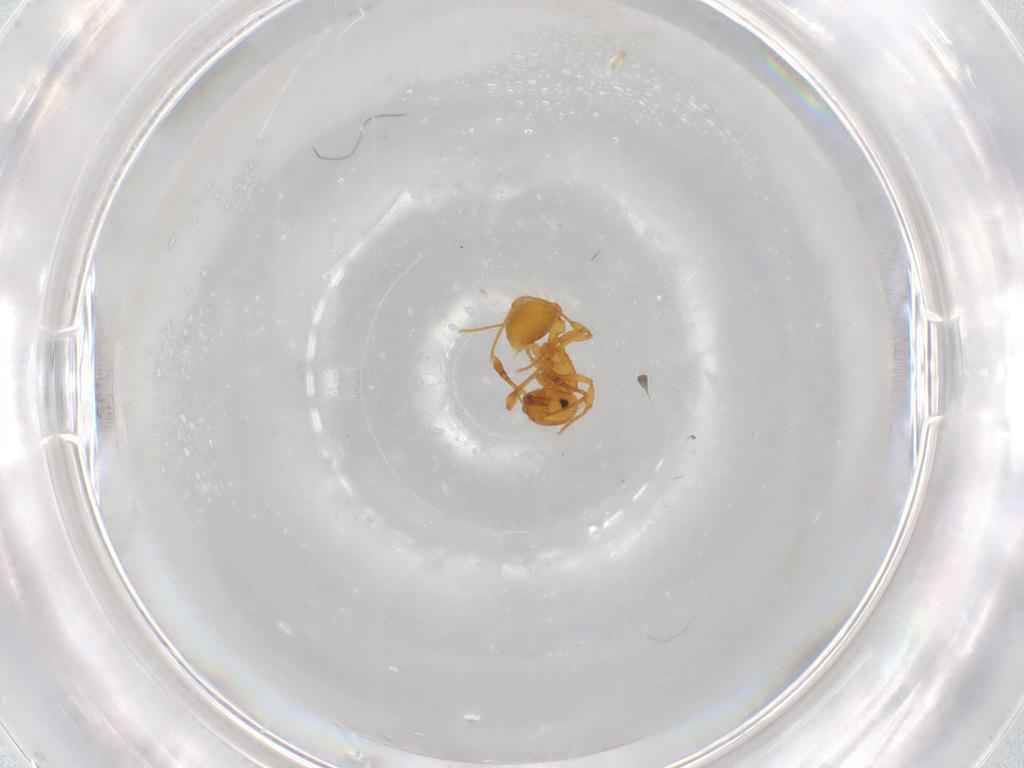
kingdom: Animalia
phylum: Arthropoda
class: Insecta
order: Hymenoptera
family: Formicidae
